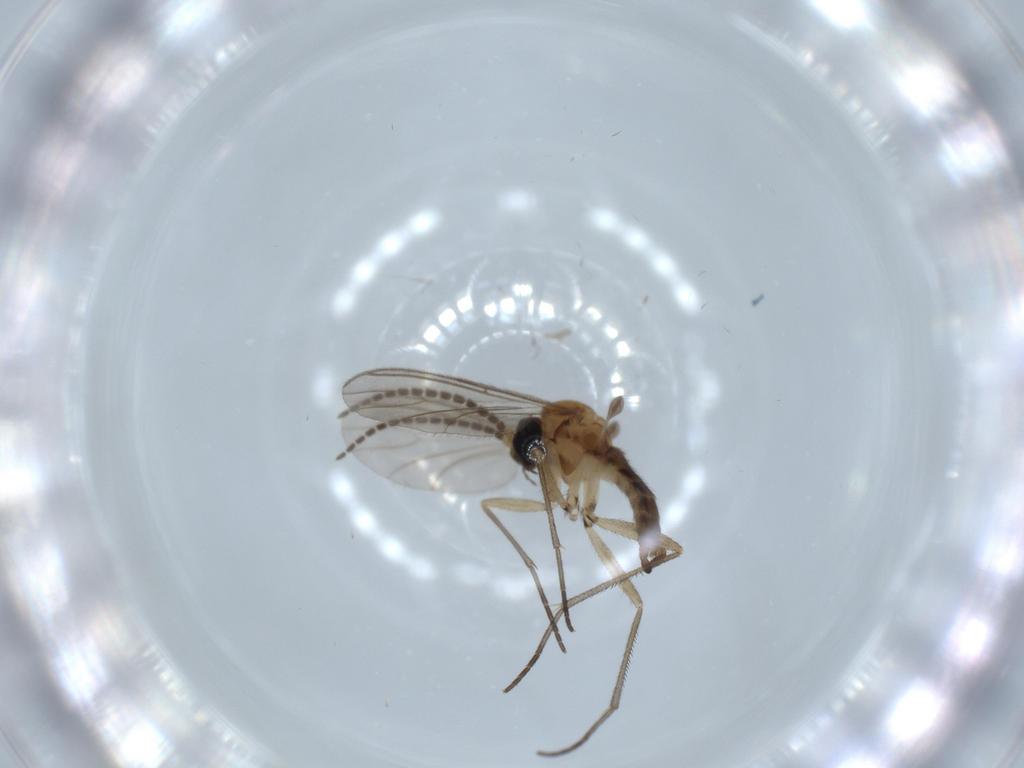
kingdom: Animalia
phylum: Arthropoda
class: Insecta
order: Diptera
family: Sciaridae
